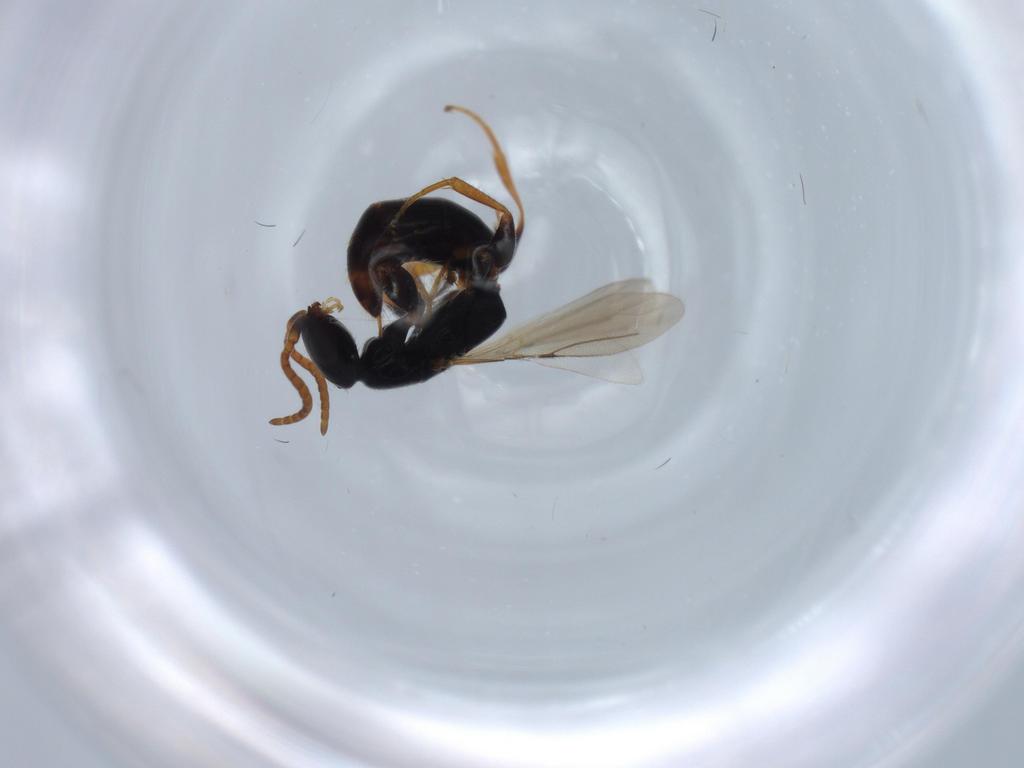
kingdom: Animalia
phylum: Arthropoda
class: Insecta
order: Hymenoptera
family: Bethylidae
